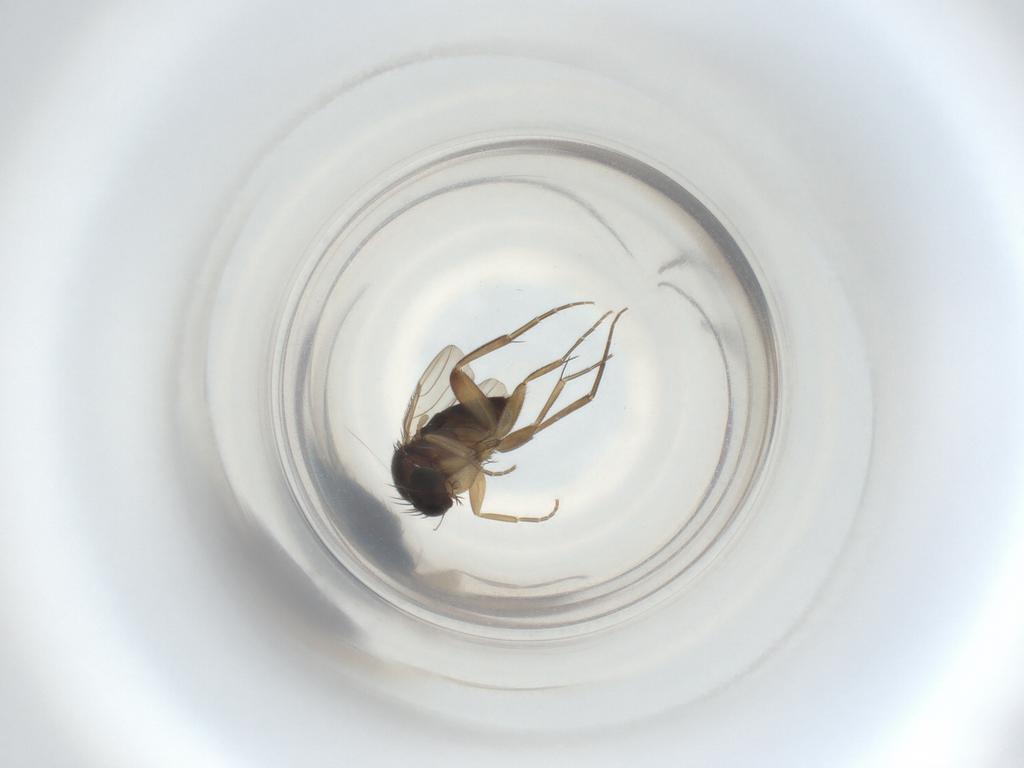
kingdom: Animalia
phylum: Arthropoda
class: Insecta
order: Diptera
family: Phoridae
